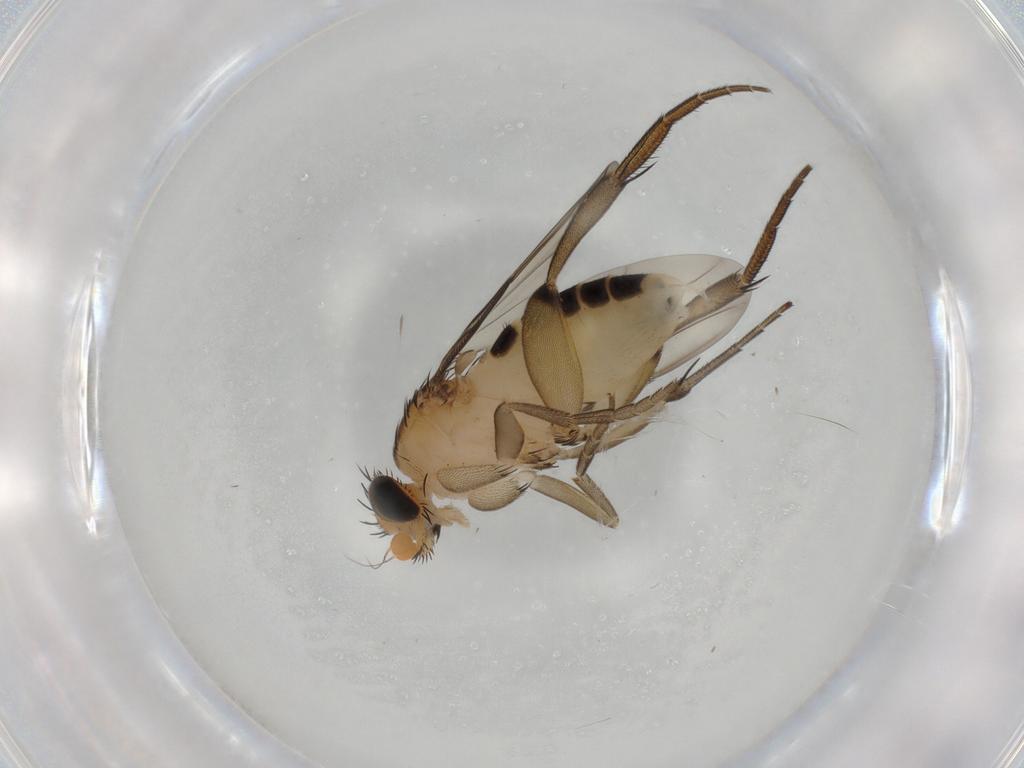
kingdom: Animalia
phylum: Arthropoda
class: Insecta
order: Diptera
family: Phoridae
